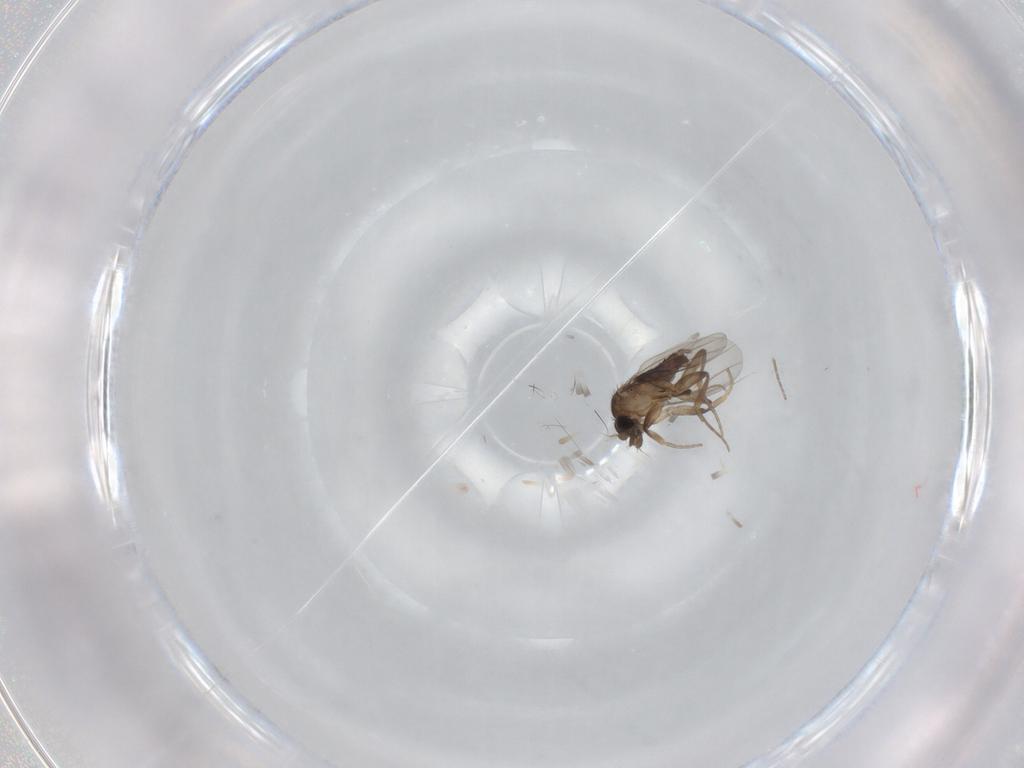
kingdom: Animalia
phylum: Arthropoda
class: Insecta
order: Diptera
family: Phoridae
